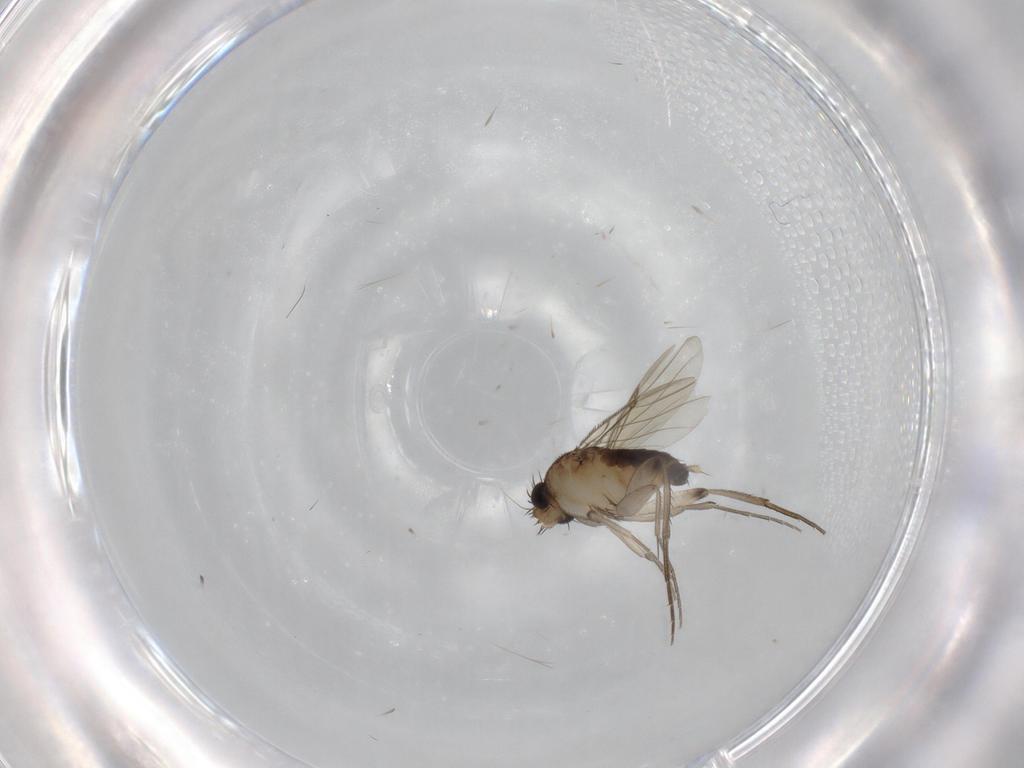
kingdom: Animalia
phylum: Arthropoda
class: Insecta
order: Diptera
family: Phoridae
